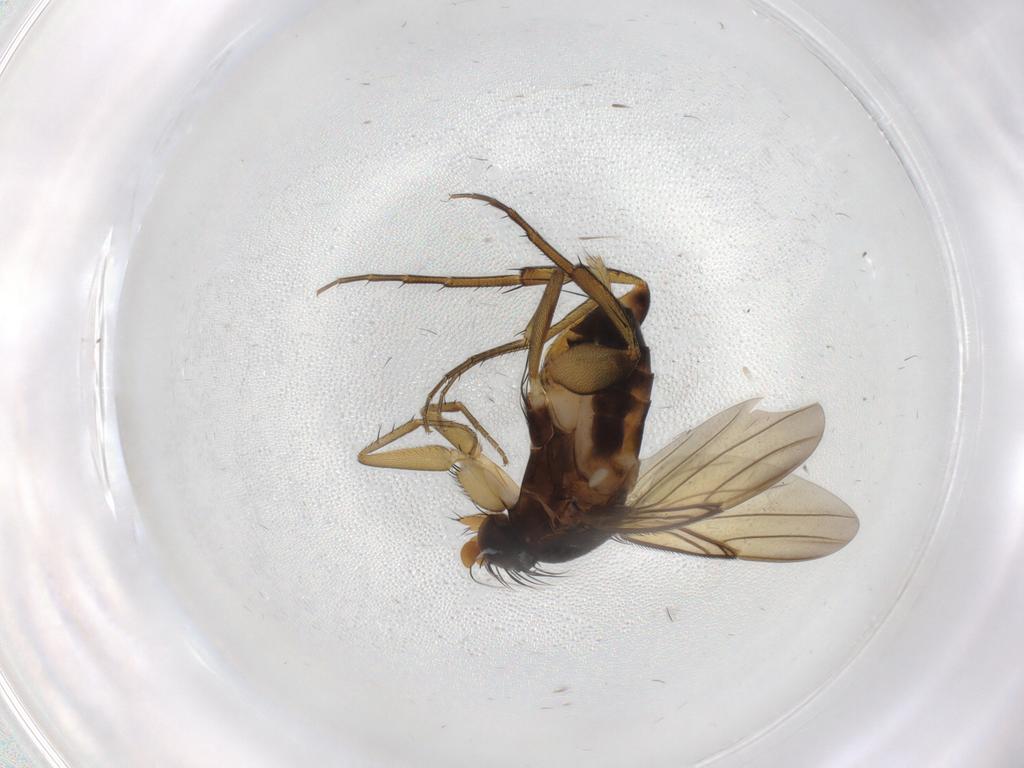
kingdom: Animalia
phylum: Arthropoda
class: Insecta
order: Diptera
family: Phoridae
